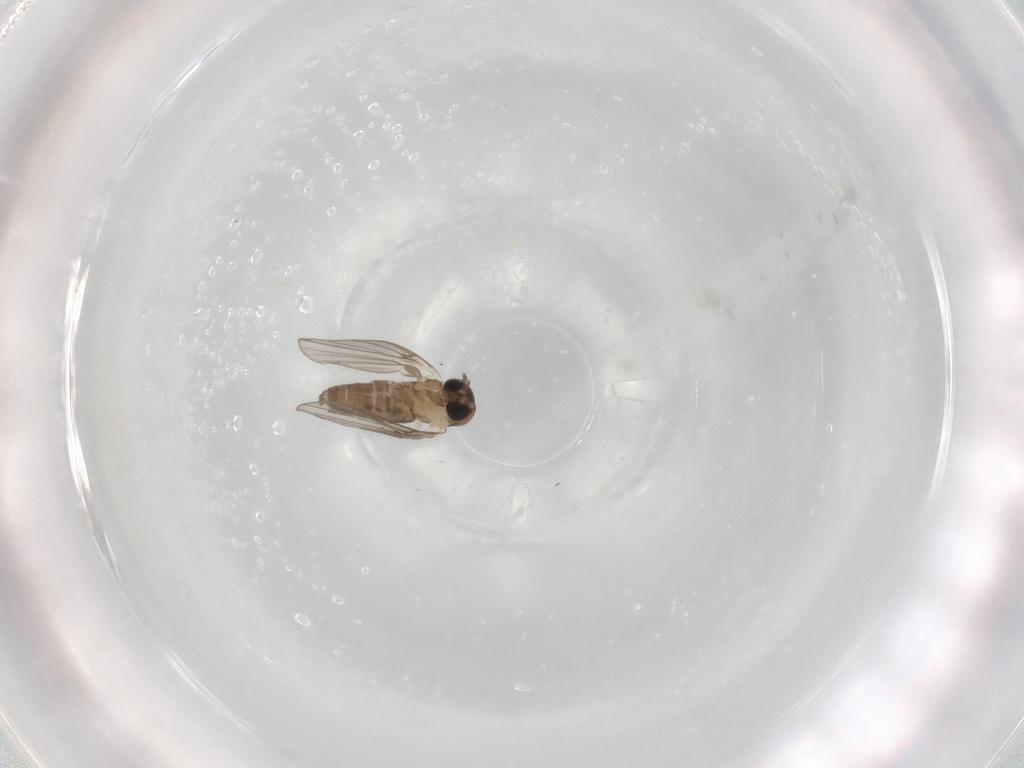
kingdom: Animalia
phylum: Arthropoda
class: Insecta
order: Diptera
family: Psychodidae
